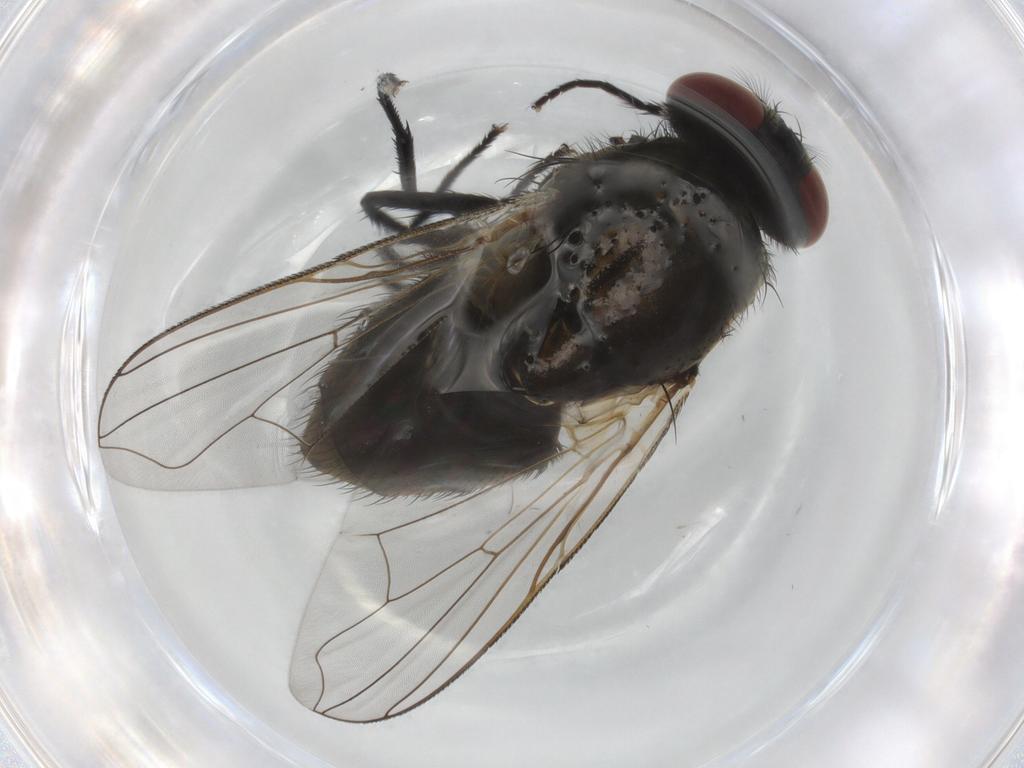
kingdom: Animalia
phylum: Arthropoda
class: Insecta
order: Diptera
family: Muscidae
